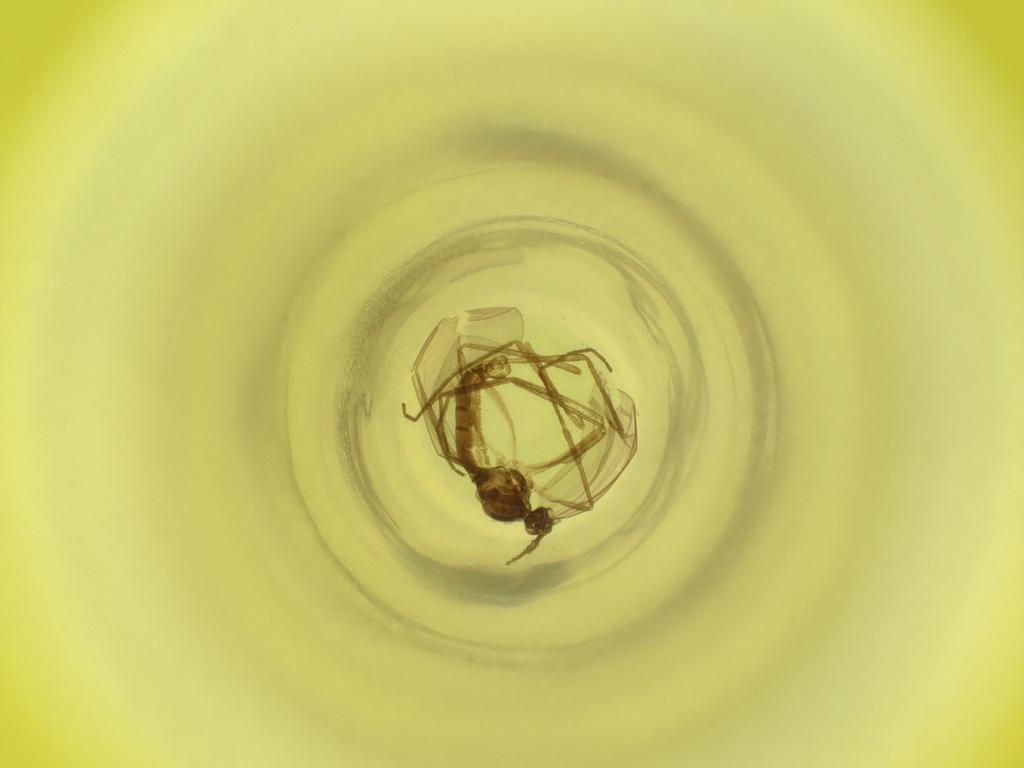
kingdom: Animalia
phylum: Arthropoda
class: Insecta
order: Diptera
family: Cecidomyiidae
